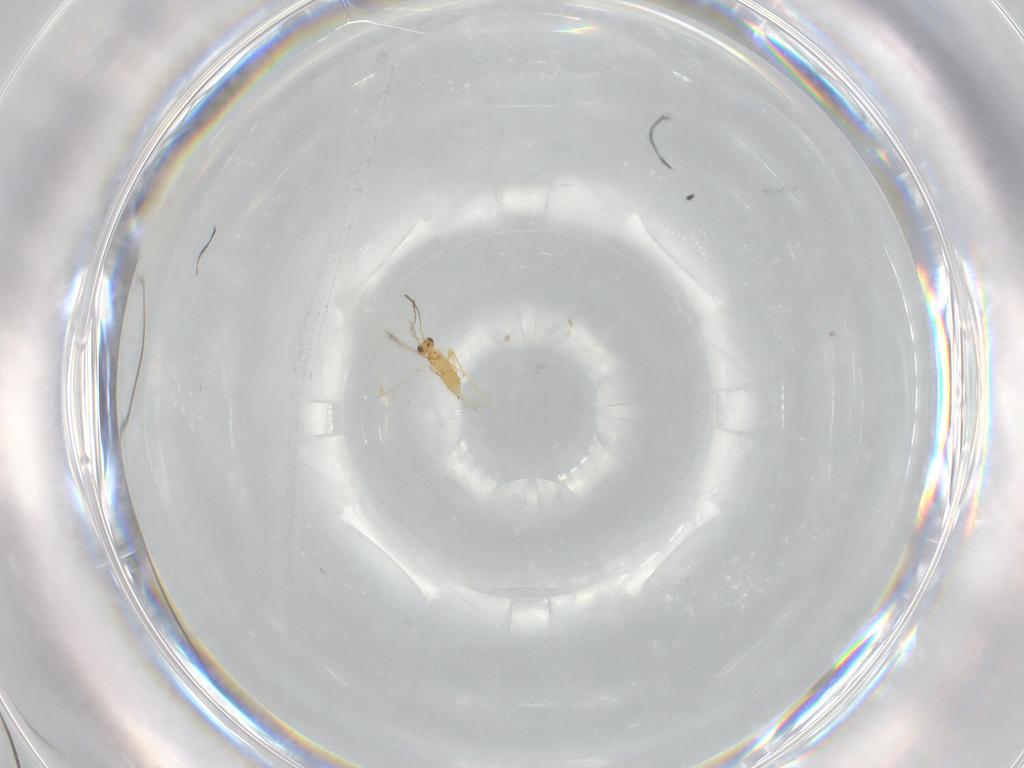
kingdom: Animalia
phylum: Arthropoda
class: Insecta
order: Hymenoptera
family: Mymaridae
